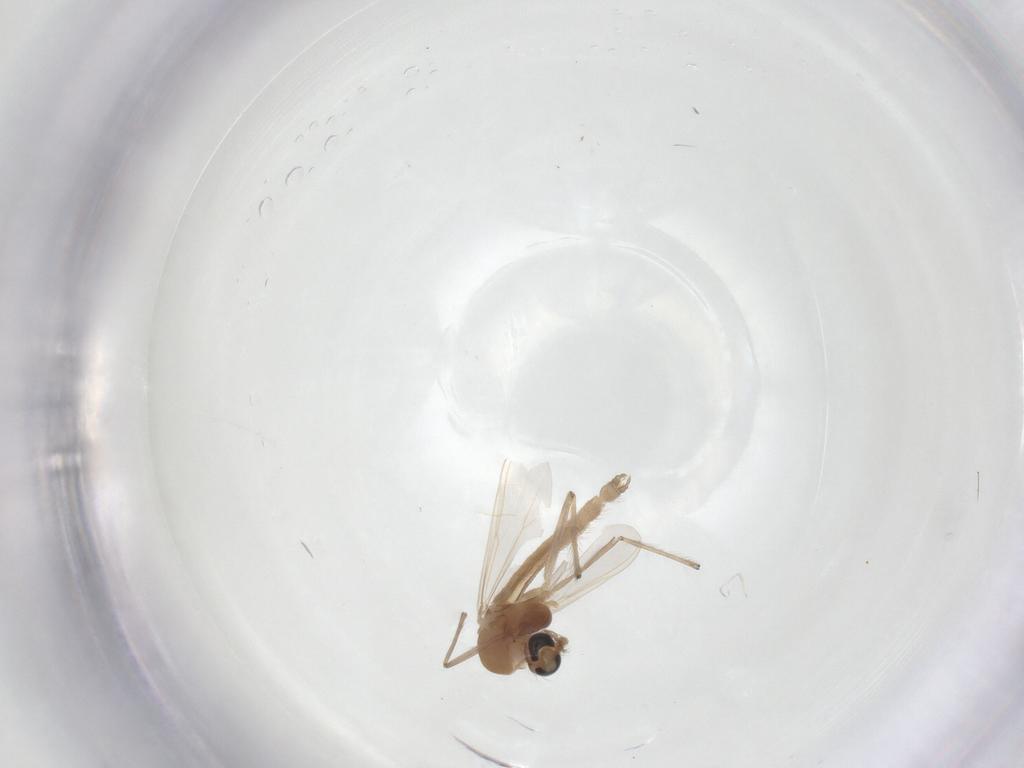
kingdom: Animalia
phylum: Arthropoda
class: Insecta
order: Diptera
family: Chironomidae
